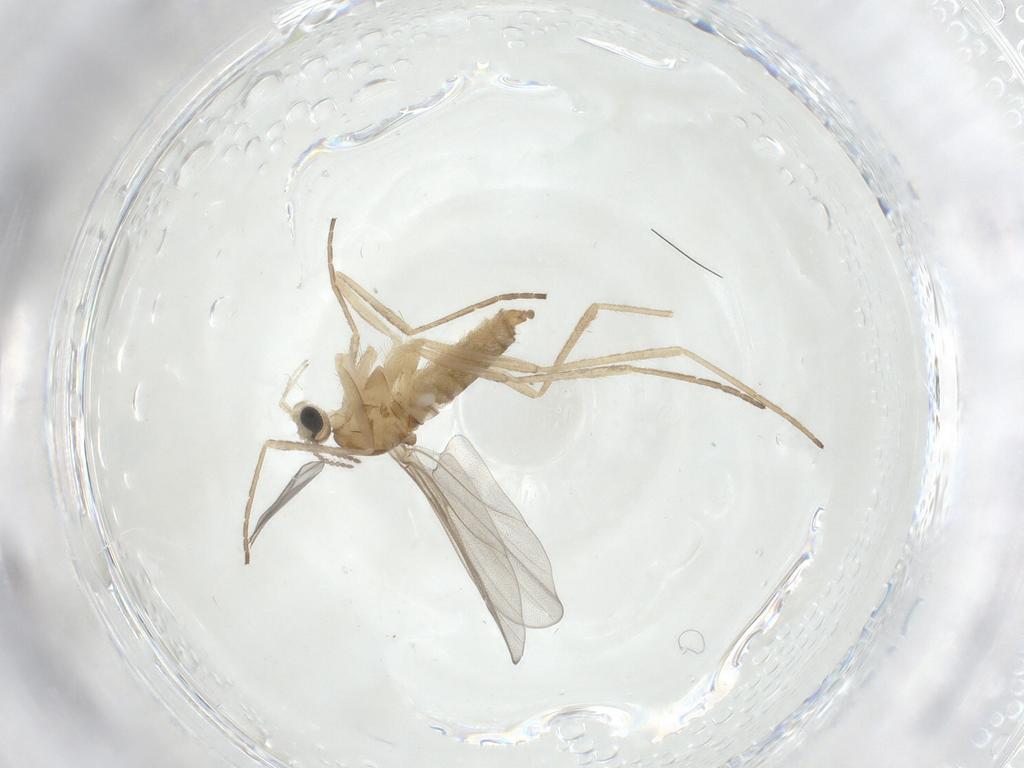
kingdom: Animalia
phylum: Arthropoda
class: Insecta
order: Diptera
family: Cecidomyiidae
